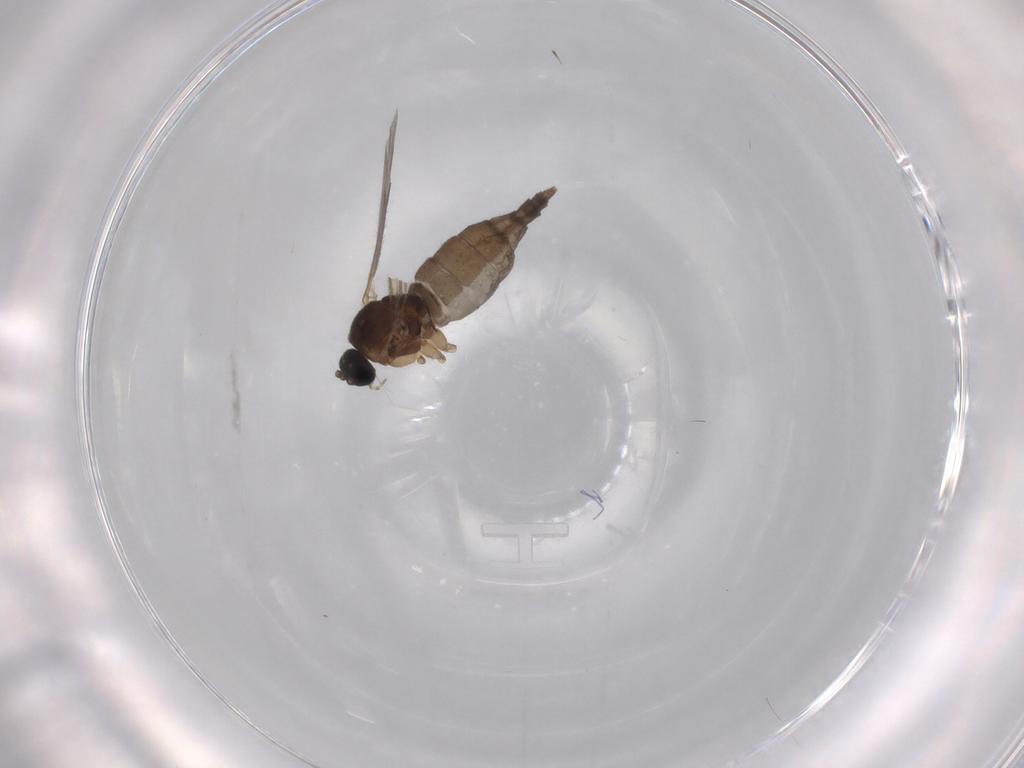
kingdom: Animalia
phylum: Arthropoda
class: Insecta
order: Diptera
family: Sciaridae
